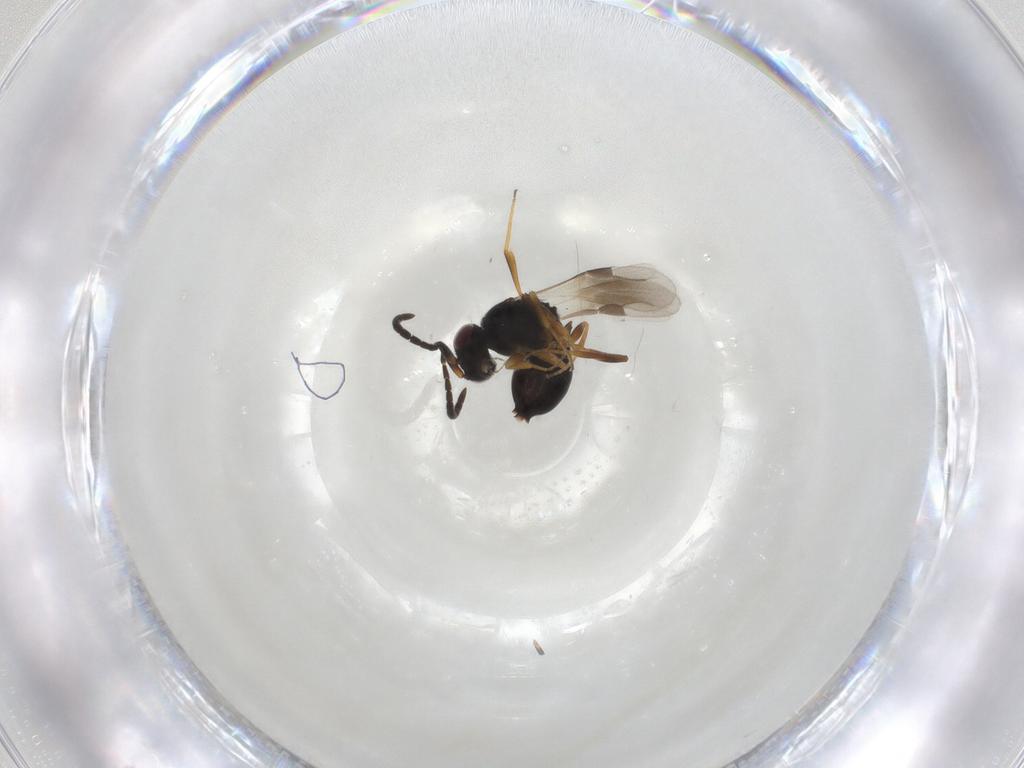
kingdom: Animalia
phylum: Arthropoda
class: Insecta
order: Hymenoptera
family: Megaspilidae
